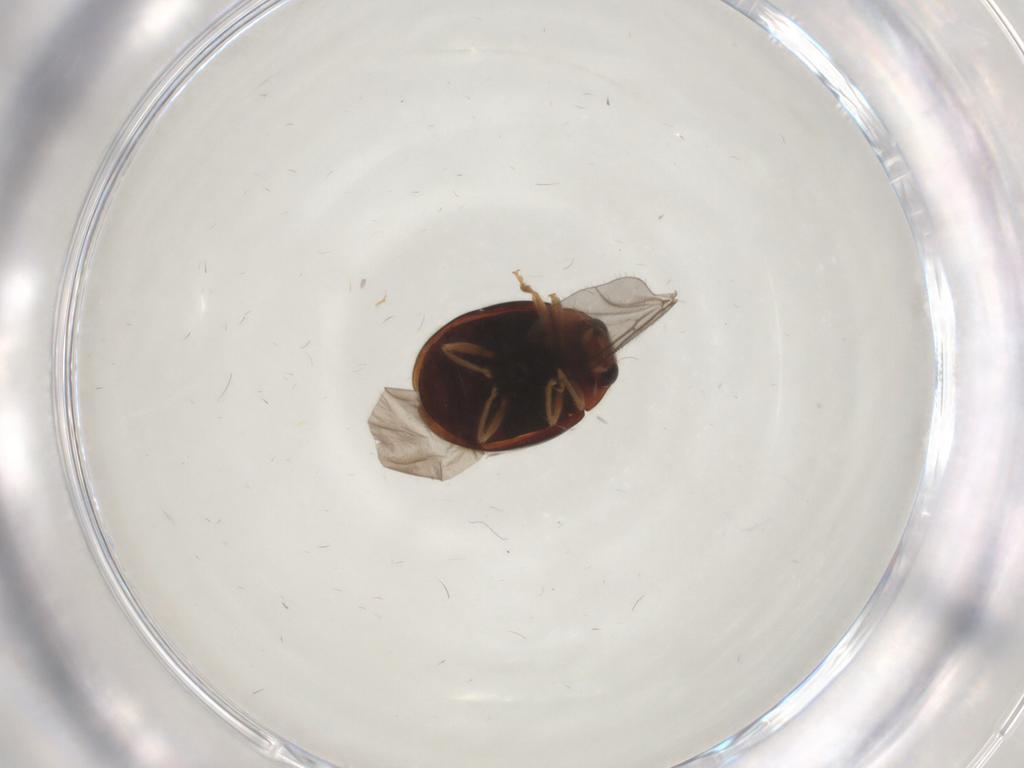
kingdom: Animalia
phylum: Arthropoda
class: Insecta
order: Coleoptera
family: Coccinellidae
